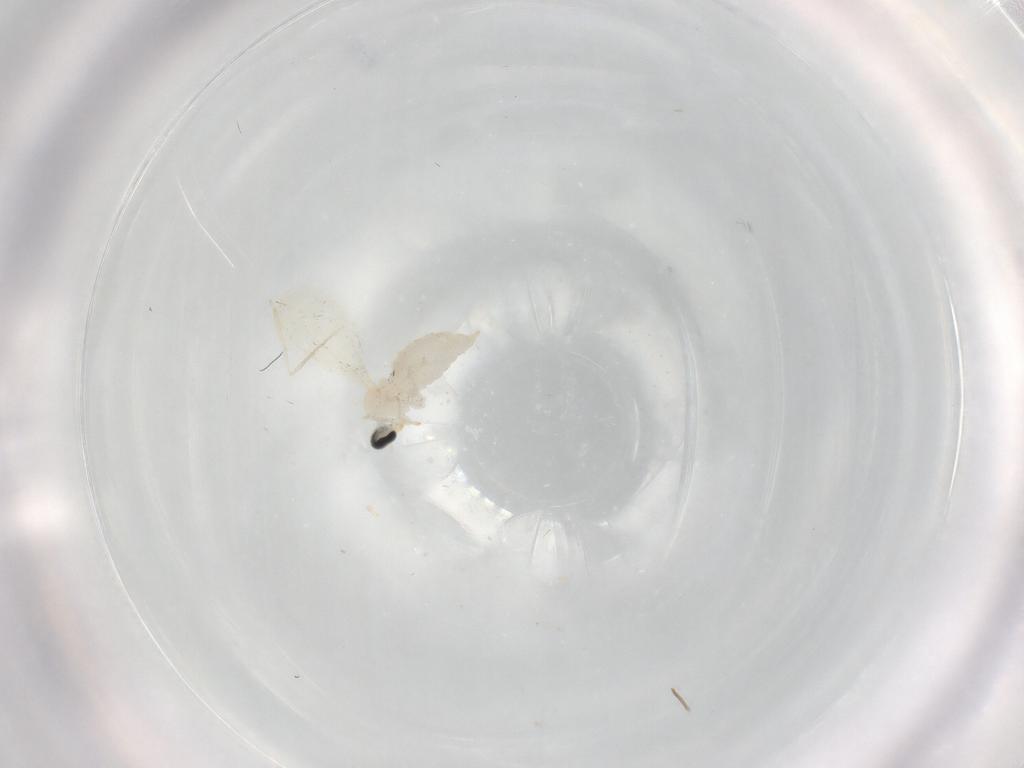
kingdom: Animalia
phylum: Arthropoda
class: Insecta
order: Diptera
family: Cecidomyiidae
